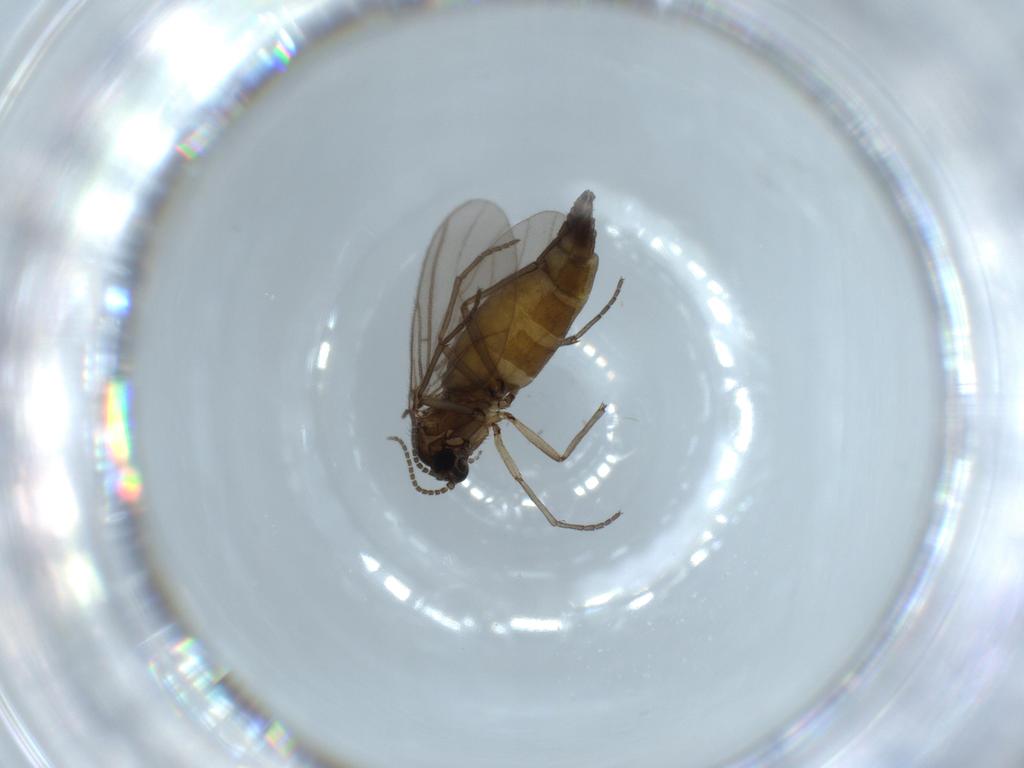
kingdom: Animalia
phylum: Arthropoda
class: Insecta
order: Diptera
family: Sciaridae
